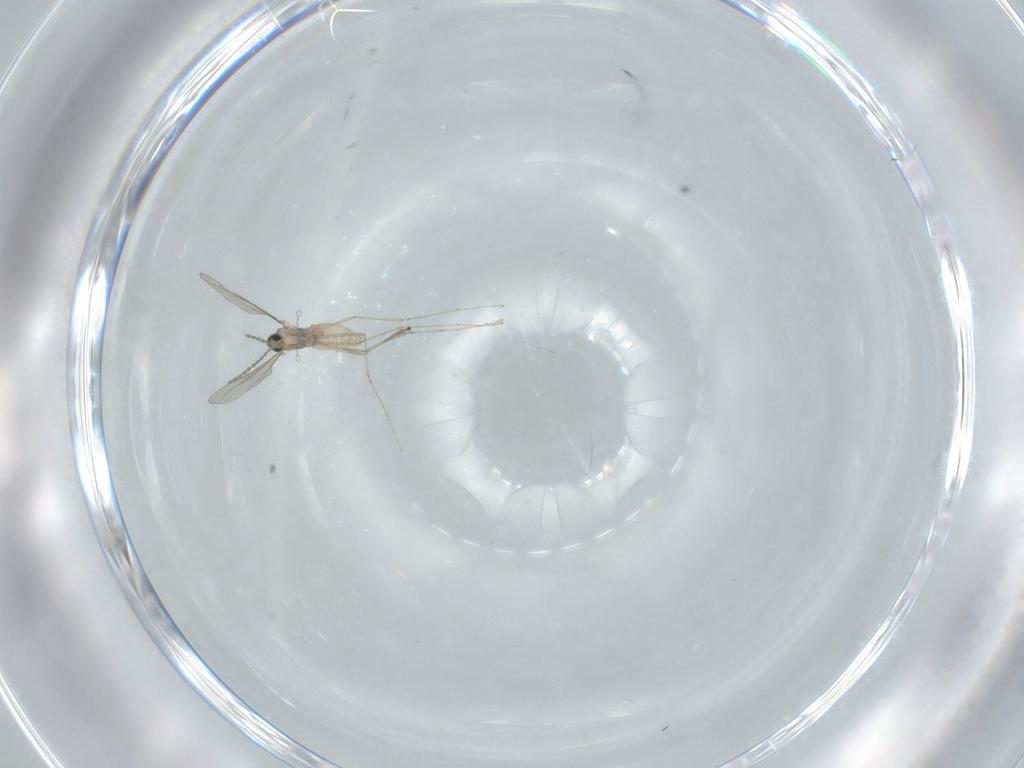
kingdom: Animalia
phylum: Arthropoda
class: Insecta
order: Diptera
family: Cecidomyiidae
